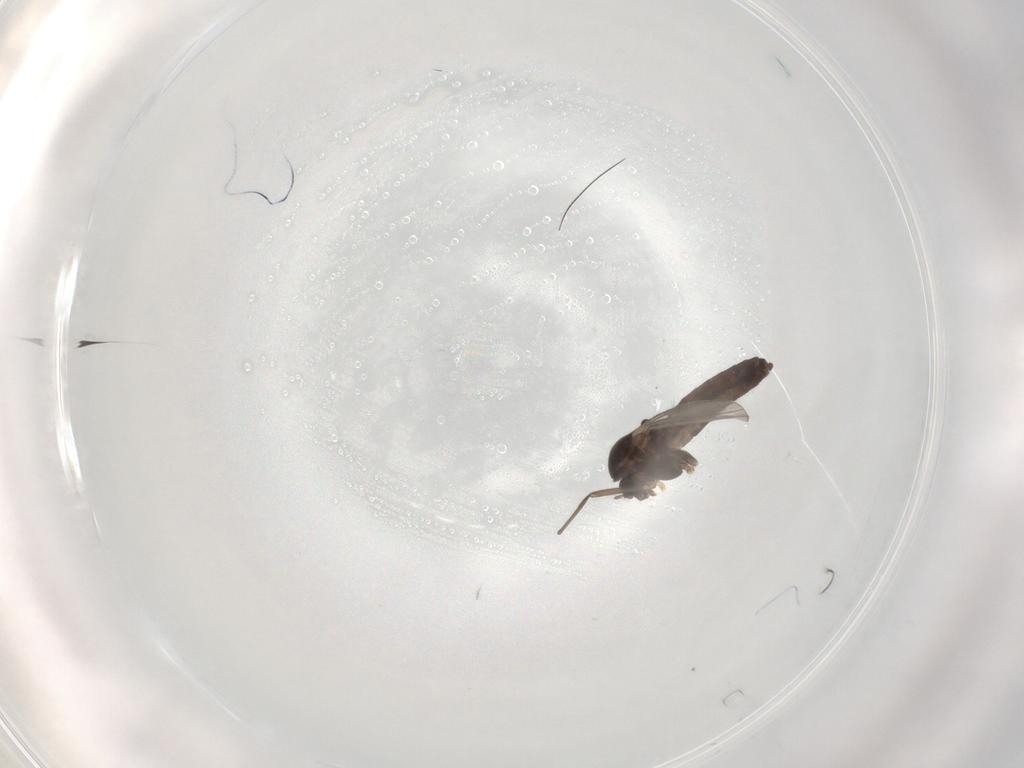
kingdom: Animalia
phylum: Arthropoda
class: Insecta
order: Diptera
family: Chironomidae
